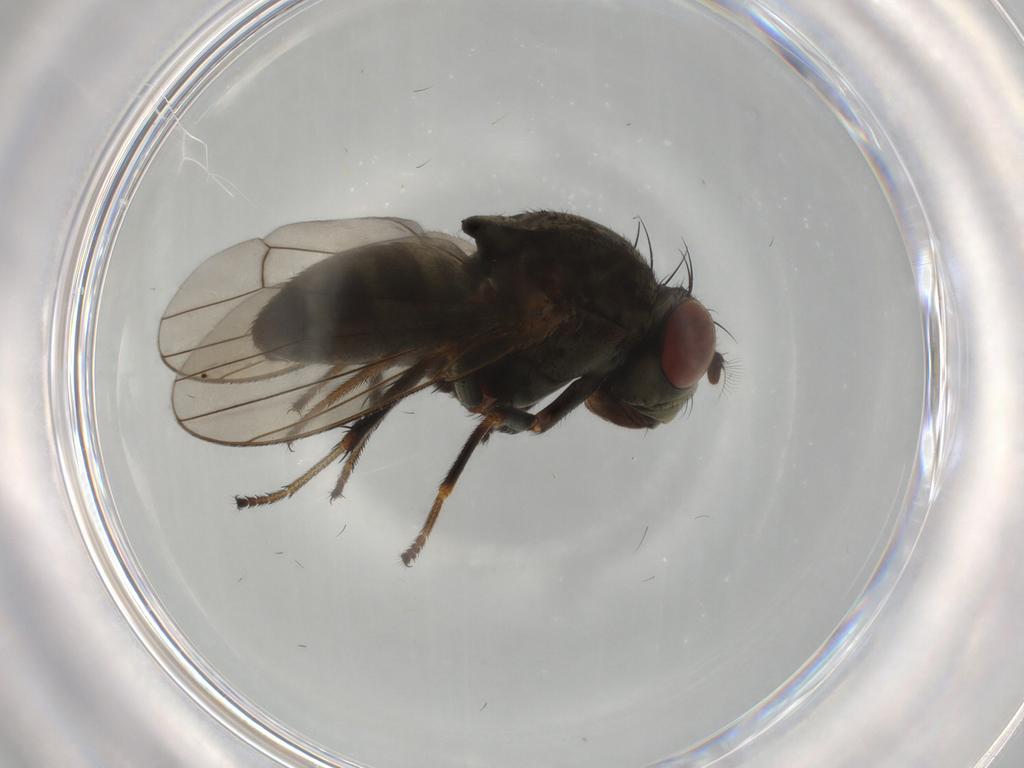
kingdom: Animalia
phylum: Arthropoda
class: Insecta
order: Diptera
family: Ephydridae
